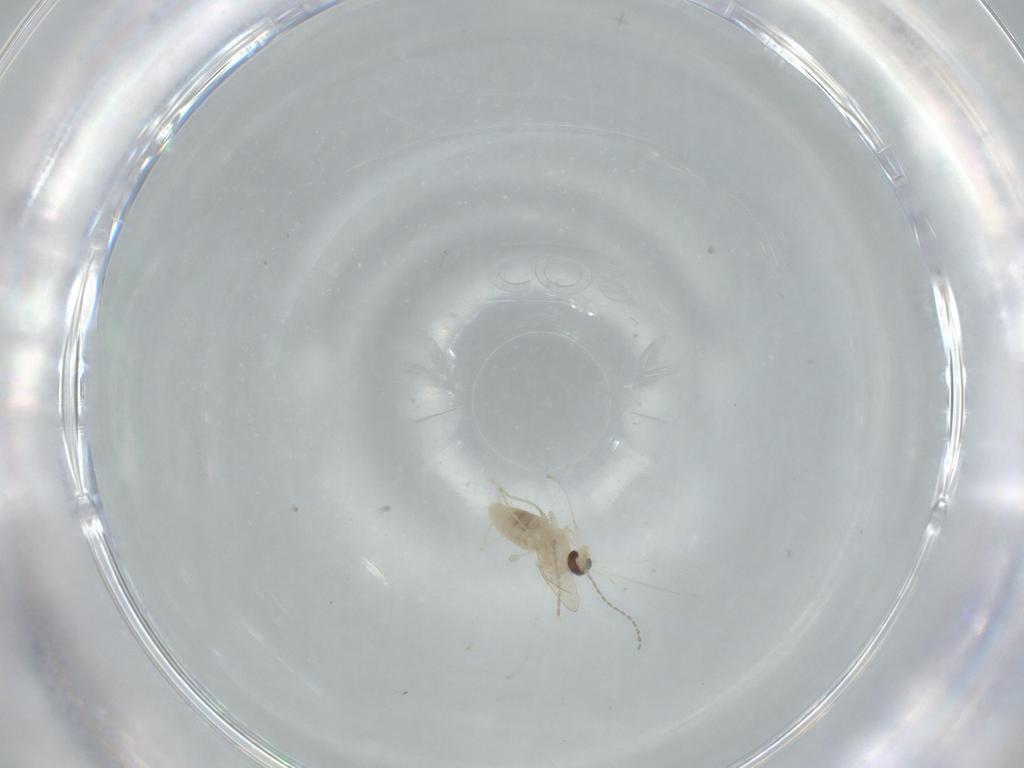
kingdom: Animalia
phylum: Arthropoda
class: Insecta
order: Diptera
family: Cecidomyiidae
